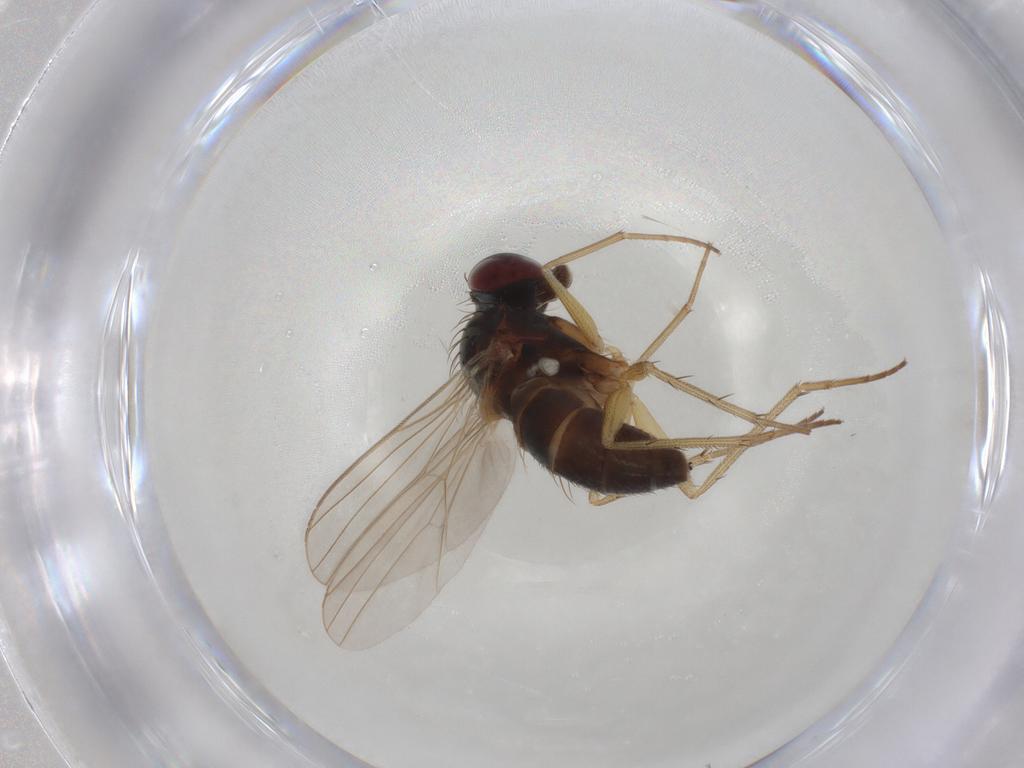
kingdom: Animalia
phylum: Arthropoda
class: Insecta
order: Diptera
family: Dolichopodidae
